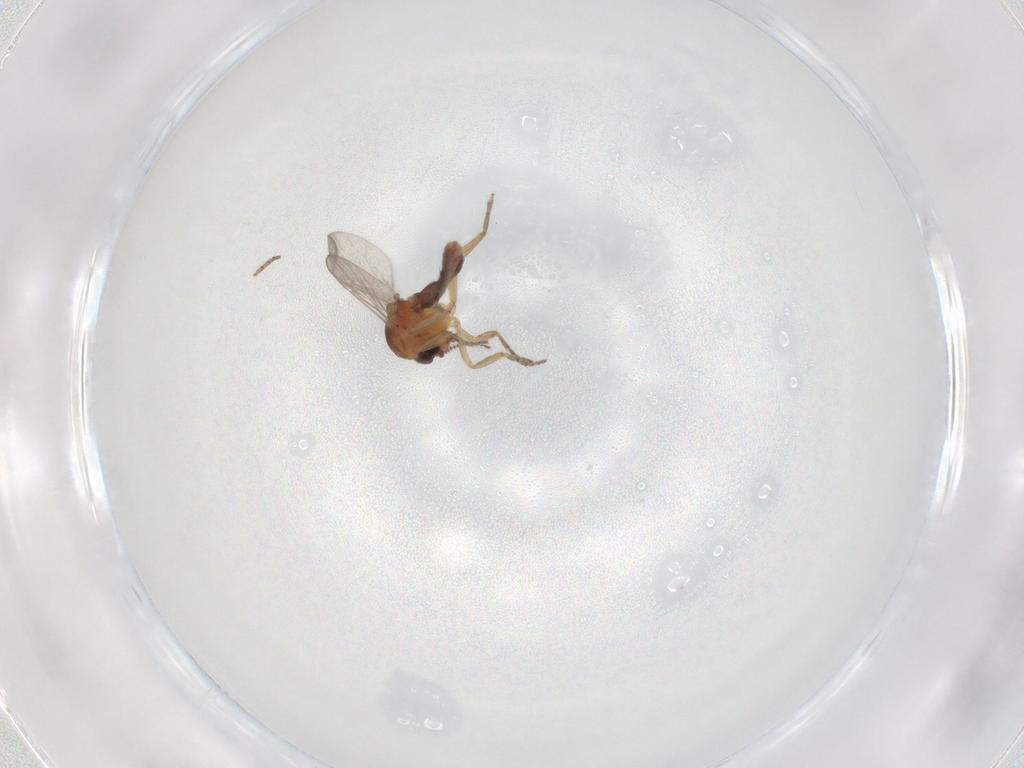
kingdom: Animalia
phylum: Arthropoda
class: Insecta
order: Diptera
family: Ceratopogonidae
